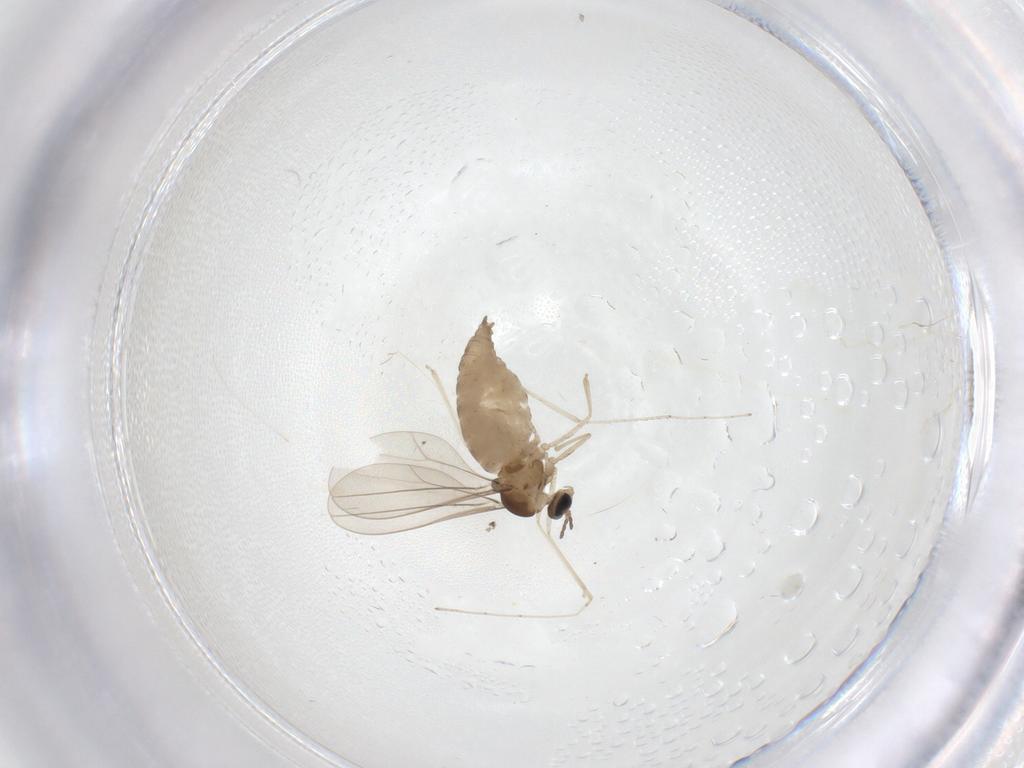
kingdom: Animalia
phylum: Arthropoda
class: Insecta
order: Diptera
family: Cecidomyiidae
